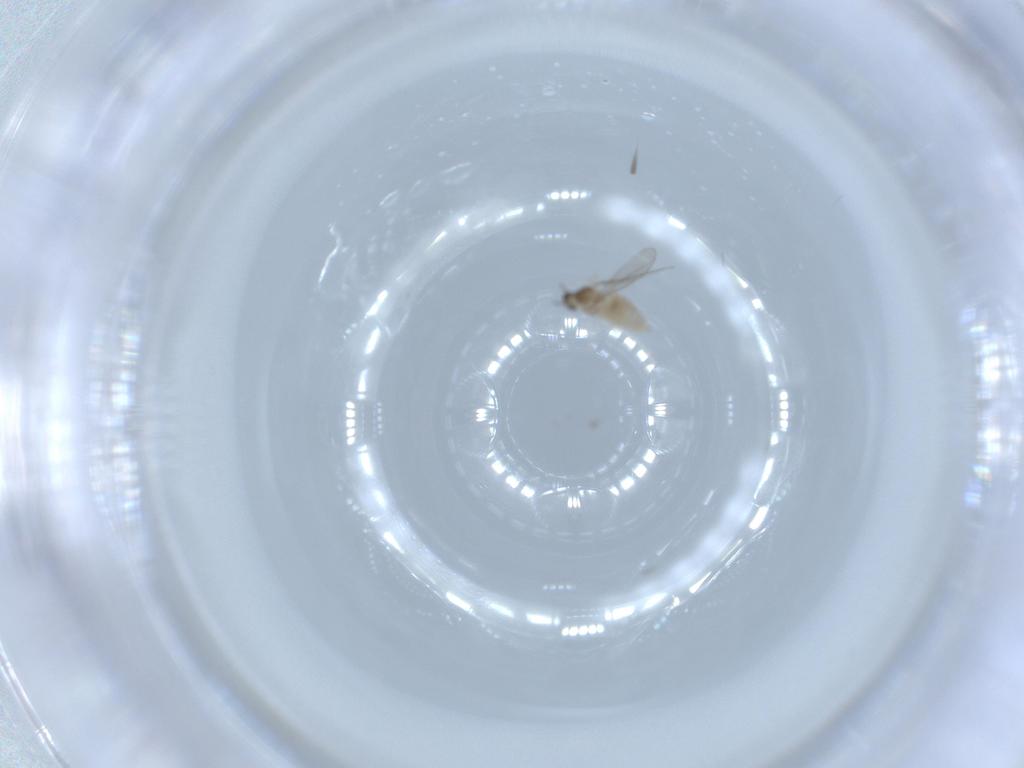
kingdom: Animalia
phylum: Arthropoda
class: Insecta
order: Diptera
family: Cecidomyiidae
